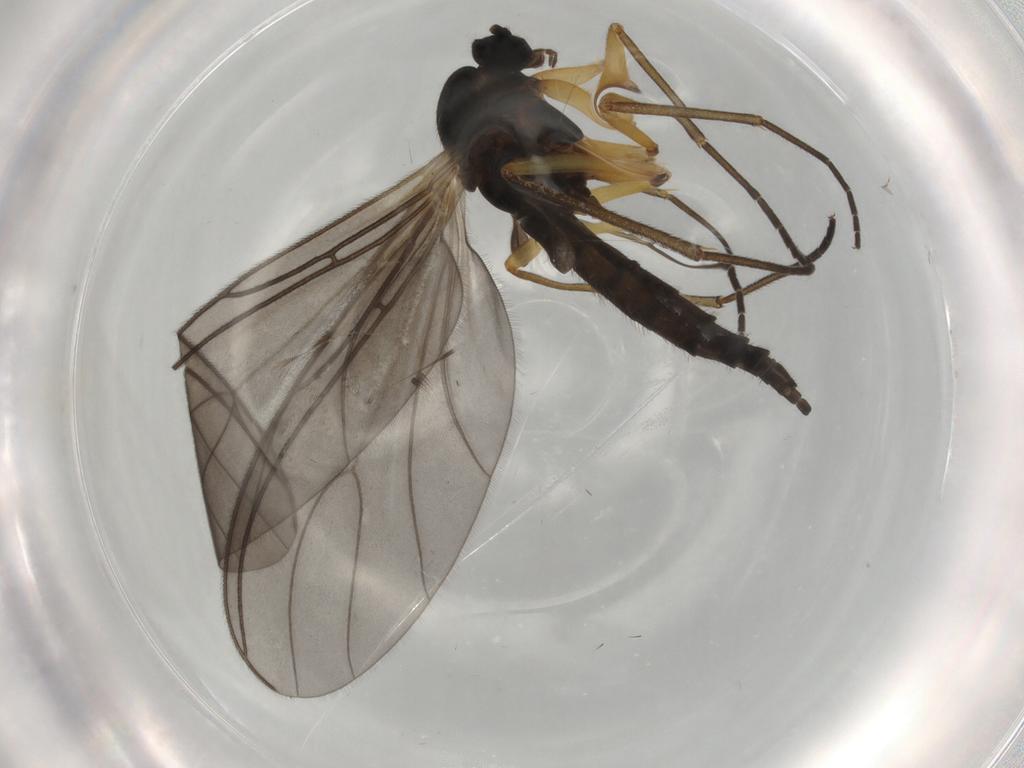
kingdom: Animalia
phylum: Arthropoda
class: Insecta
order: Diptera
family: Sciaridae
